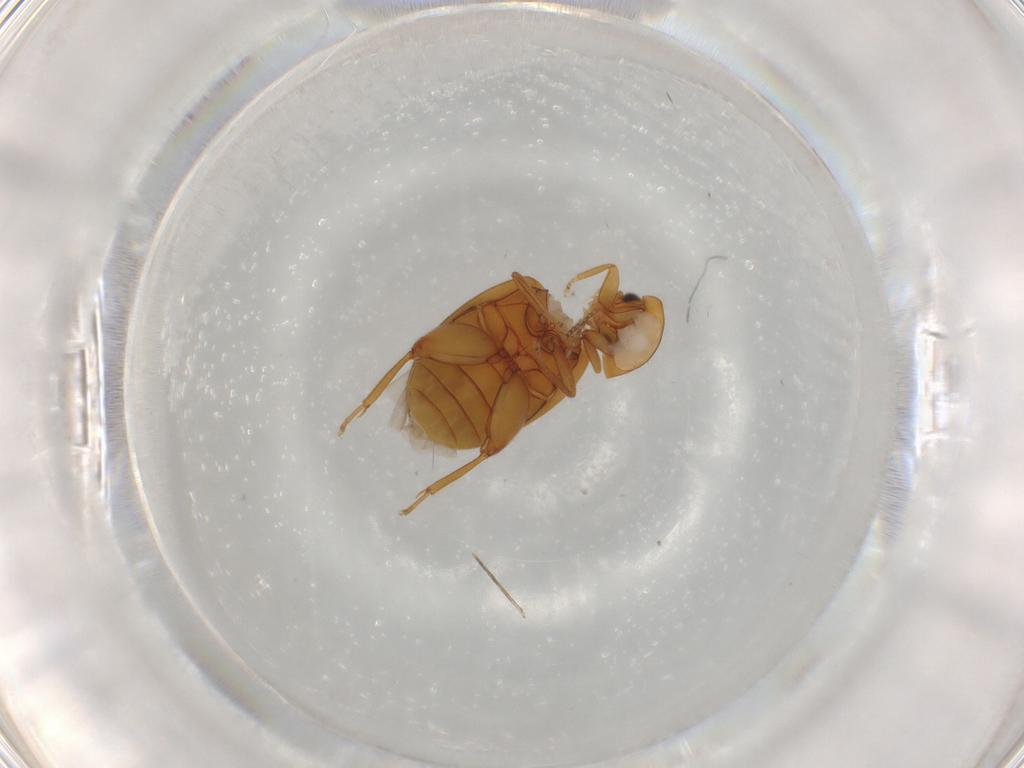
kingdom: Animalia
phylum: Arthropoda
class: Insecta
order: Coleoptera
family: Scirtidae
